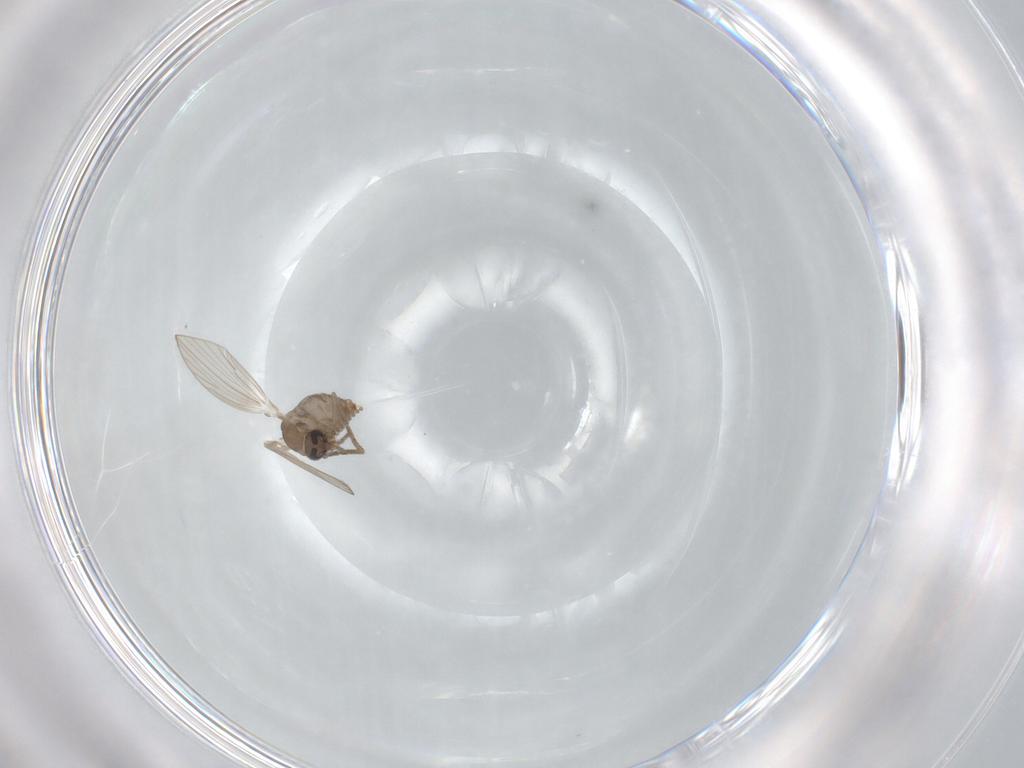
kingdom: Animalia
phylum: Arthropoda
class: Insecta
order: Diptera
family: Psychodidae
